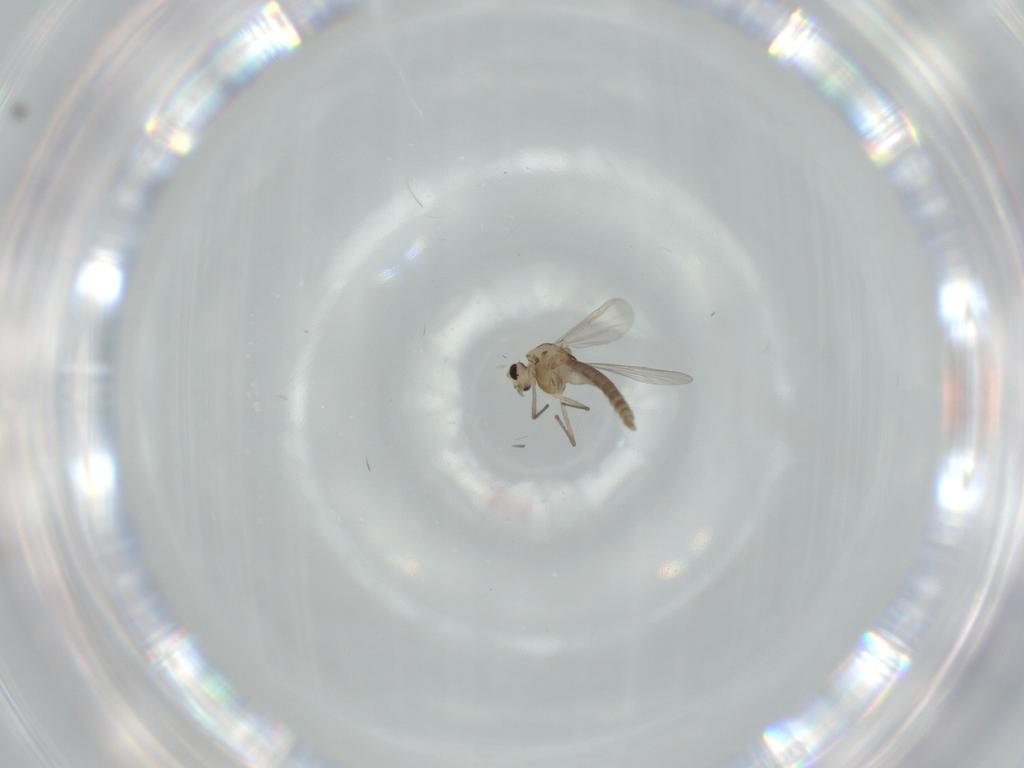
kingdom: Animalia
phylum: Arthropoda
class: Insecta
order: Diptera
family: Chironomidae
